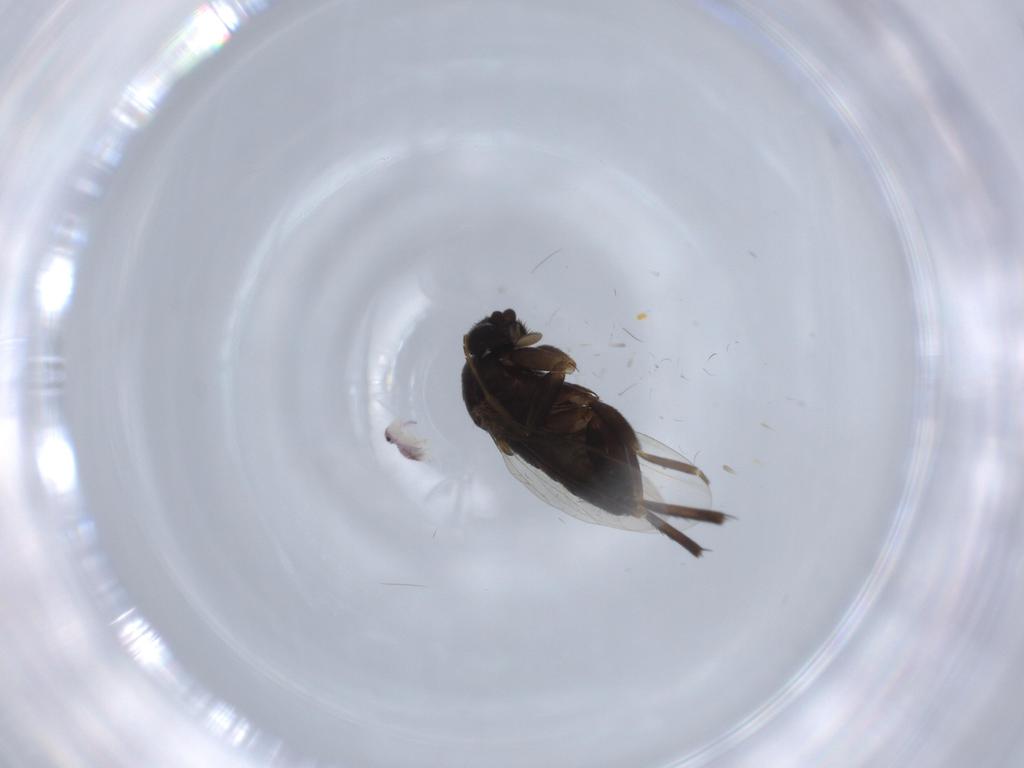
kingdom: Animalia
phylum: Arthropoda
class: Insecta
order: Diptera
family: Phoridae
